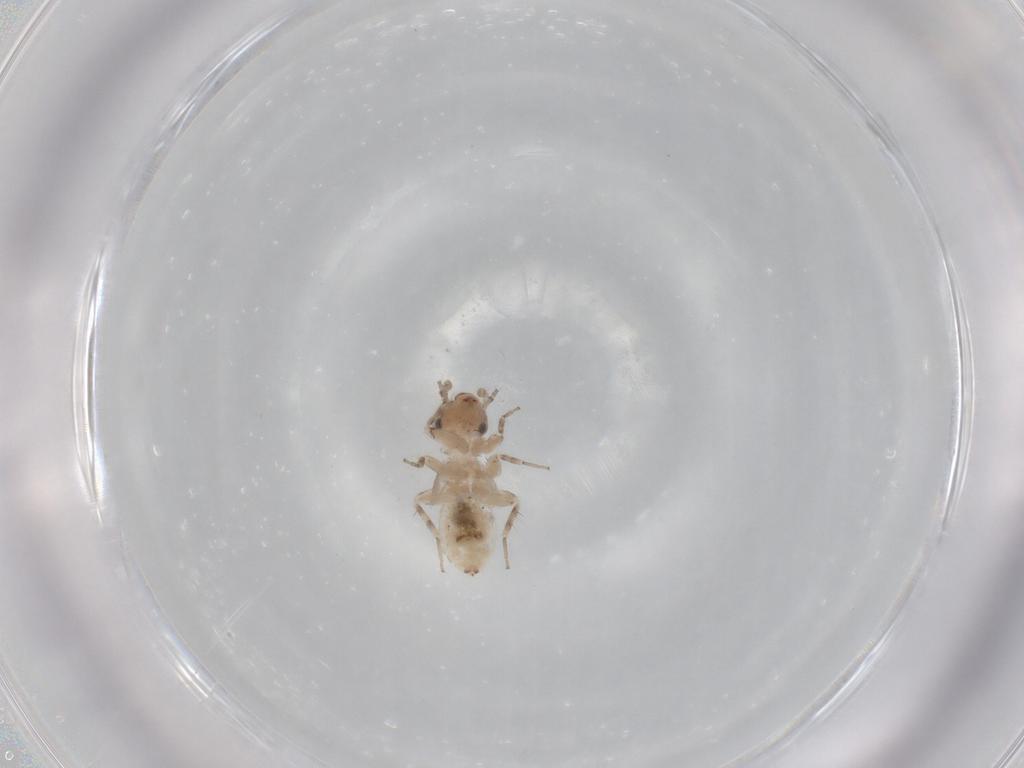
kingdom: Animalia
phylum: Arthropoda
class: Insecta
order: Psocodea
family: Lepidopsocidae
